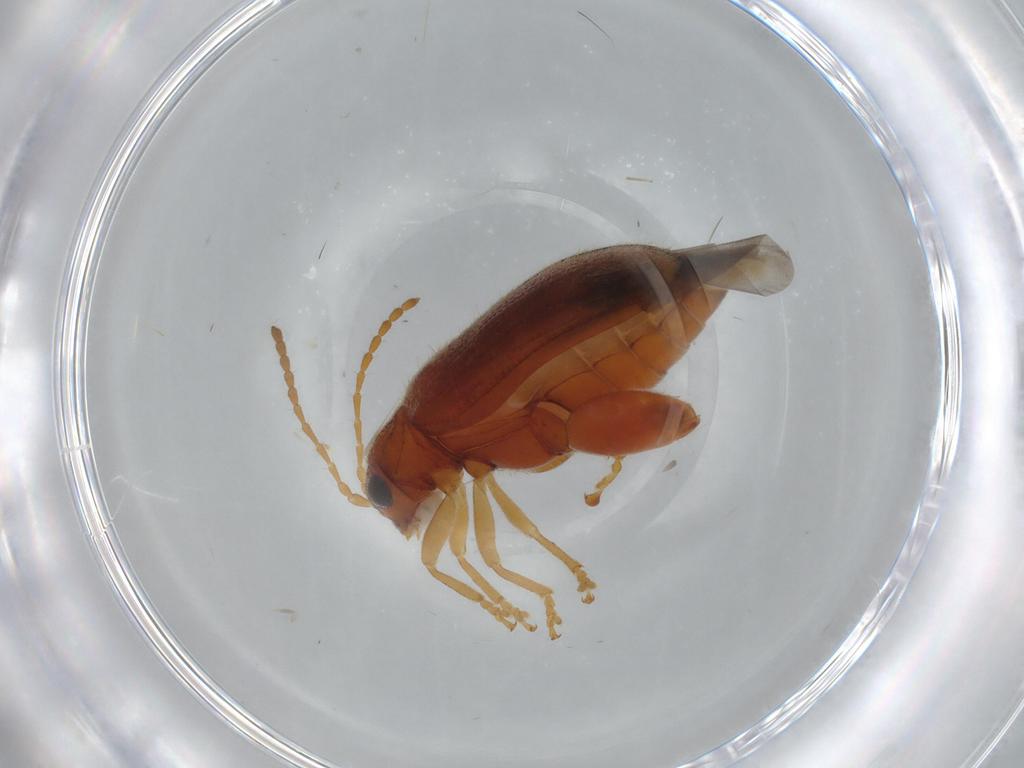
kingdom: Animalia
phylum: Arthropoda
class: Insecta
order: Coleoptera
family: Chrysomelidae
